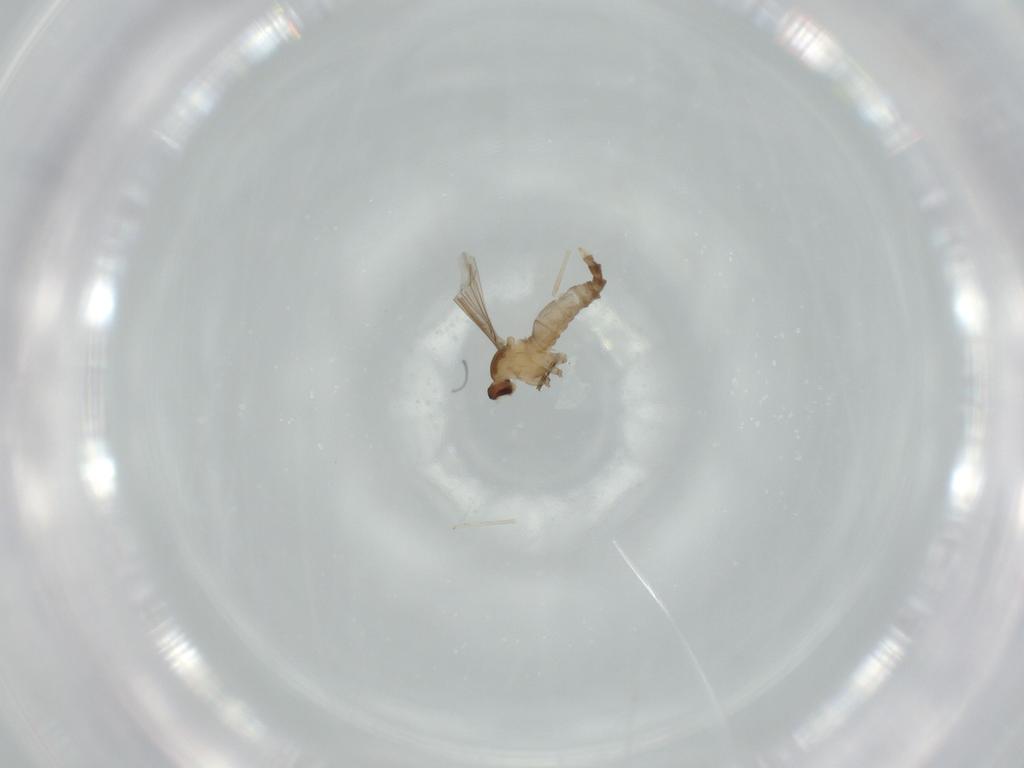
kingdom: Animalia
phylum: Arthropoda
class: Insecta
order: Diptera
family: Cecidomyiidae
